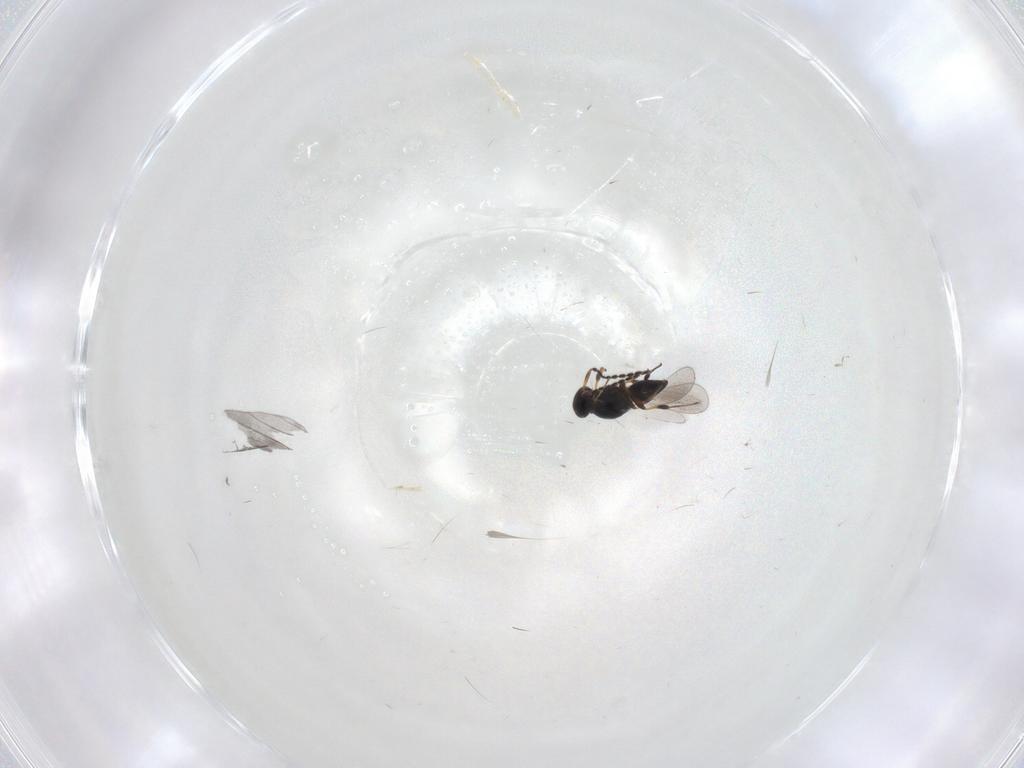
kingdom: Animalia
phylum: Arthropoda
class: Insecta
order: Hymenoptera
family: Platygastridae
